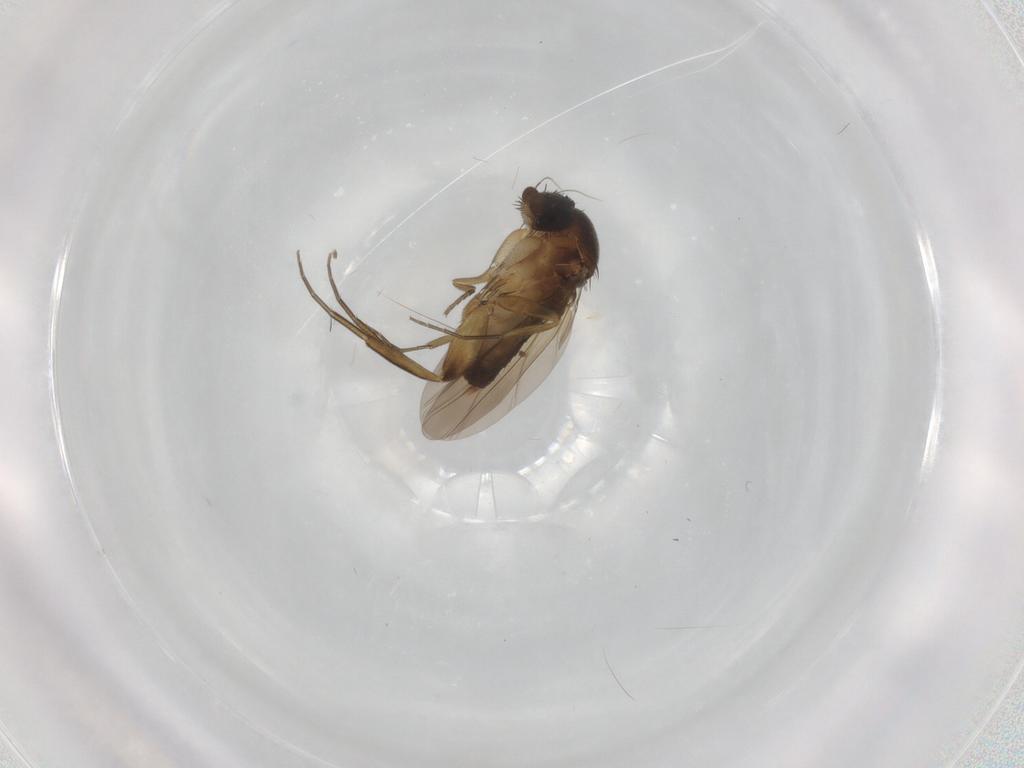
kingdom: Animalia
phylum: Arthropoda
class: Insecta
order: Diptera
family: Phoridae
